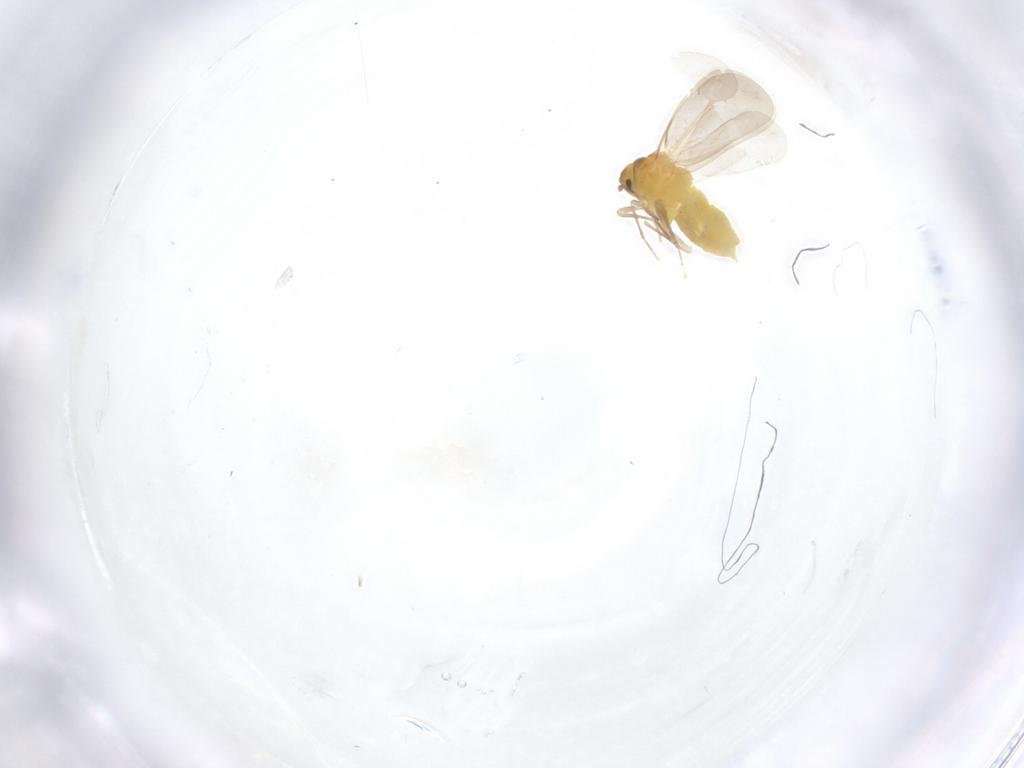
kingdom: Animalia
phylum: Arthropoda
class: Insecta
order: Hemiptera
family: Aleyrodidae
